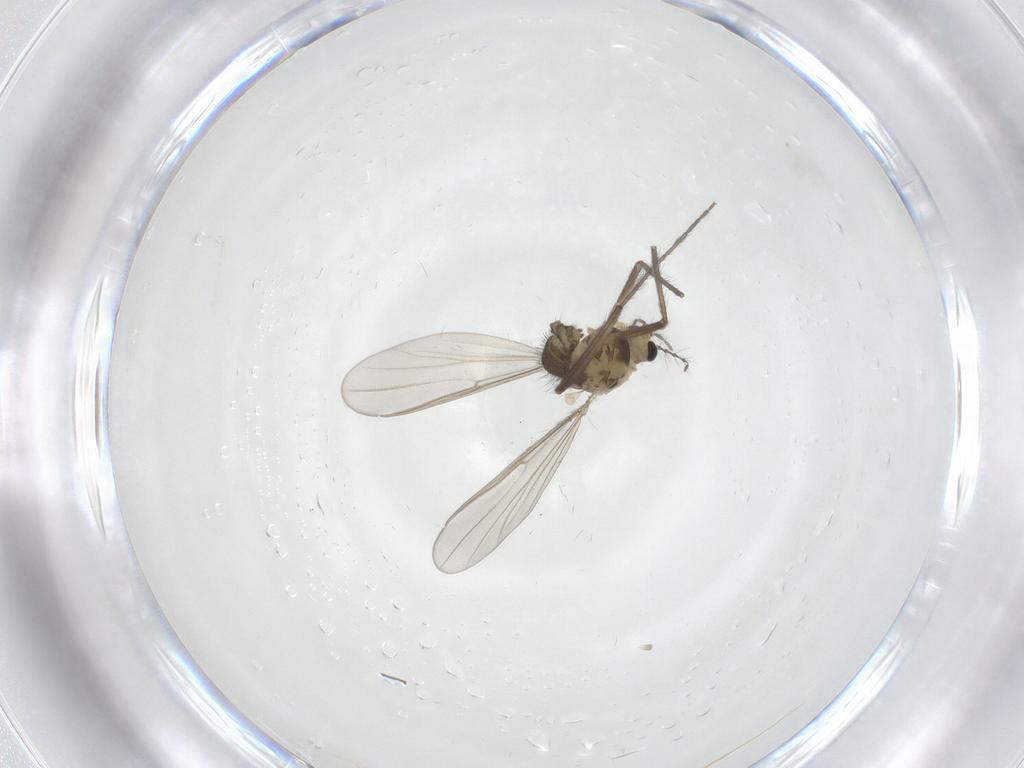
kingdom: Animalia
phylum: Arthropoda
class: Insecta
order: Diptera
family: Chironomidae
